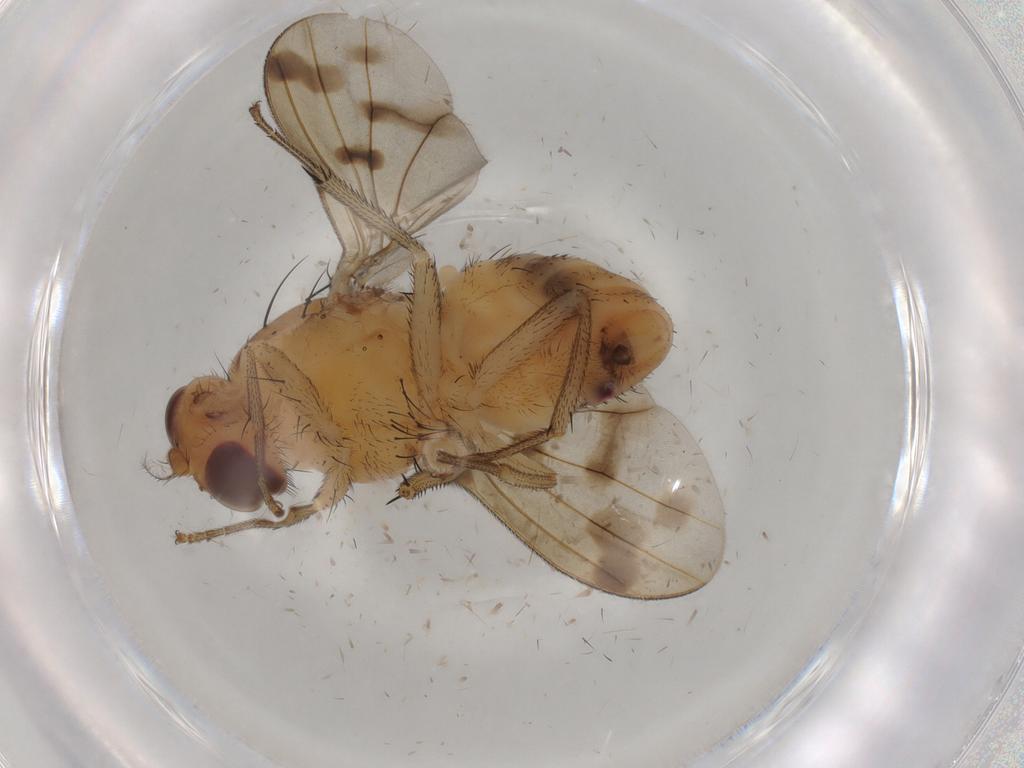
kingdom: Animalia
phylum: Arthropoda
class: Insecta
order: Diptera
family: Lauxaniidae
